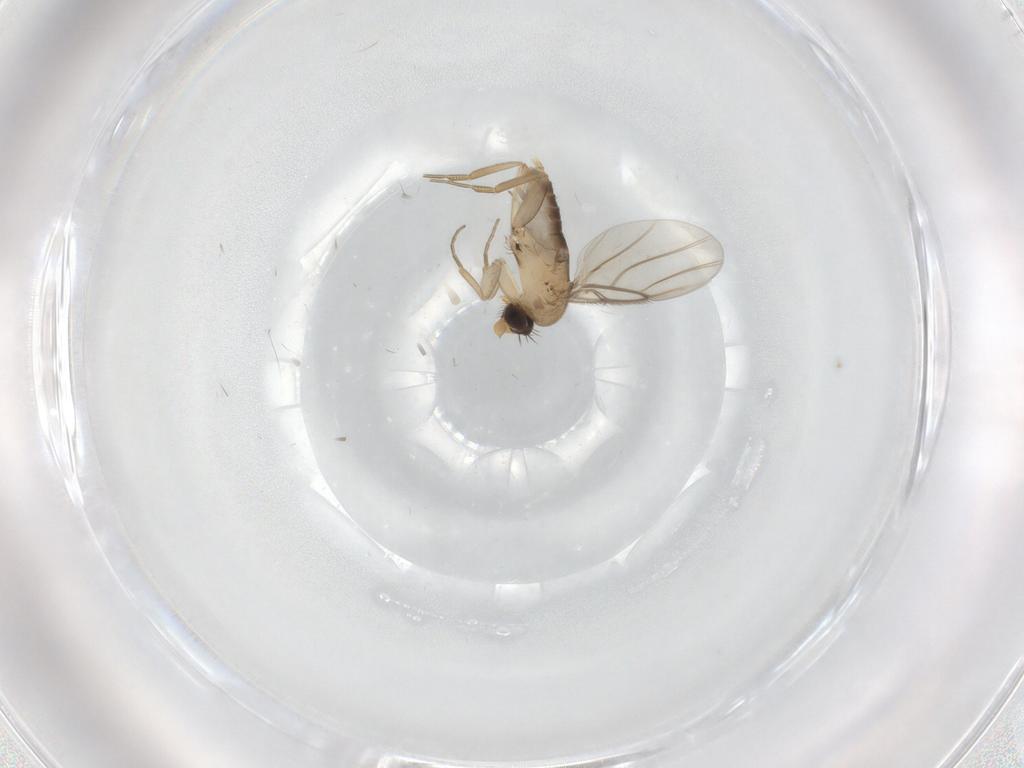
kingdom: Animalia
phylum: Arthropoda
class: Insecta
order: Diptera
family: Phoridae
